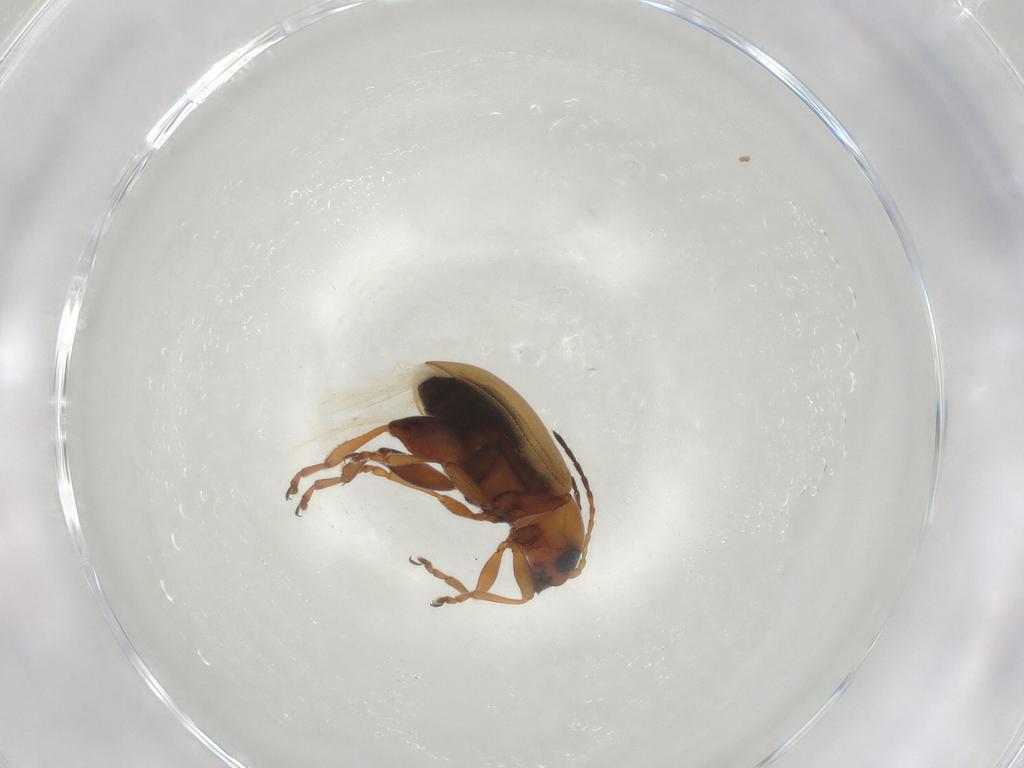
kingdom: Animalia
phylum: Arthropoda
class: Insecta
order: Coleoptera
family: Chrysomelidae
